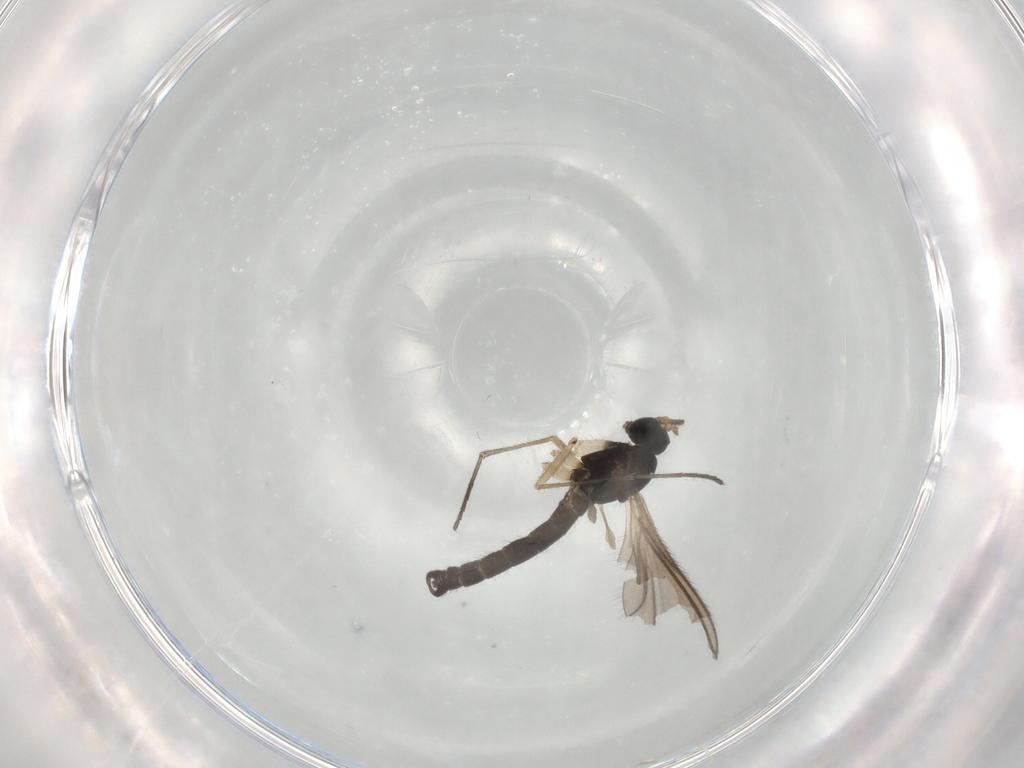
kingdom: Animalia
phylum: Arthropoda
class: Insecta
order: Diptera
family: Sciaridae
